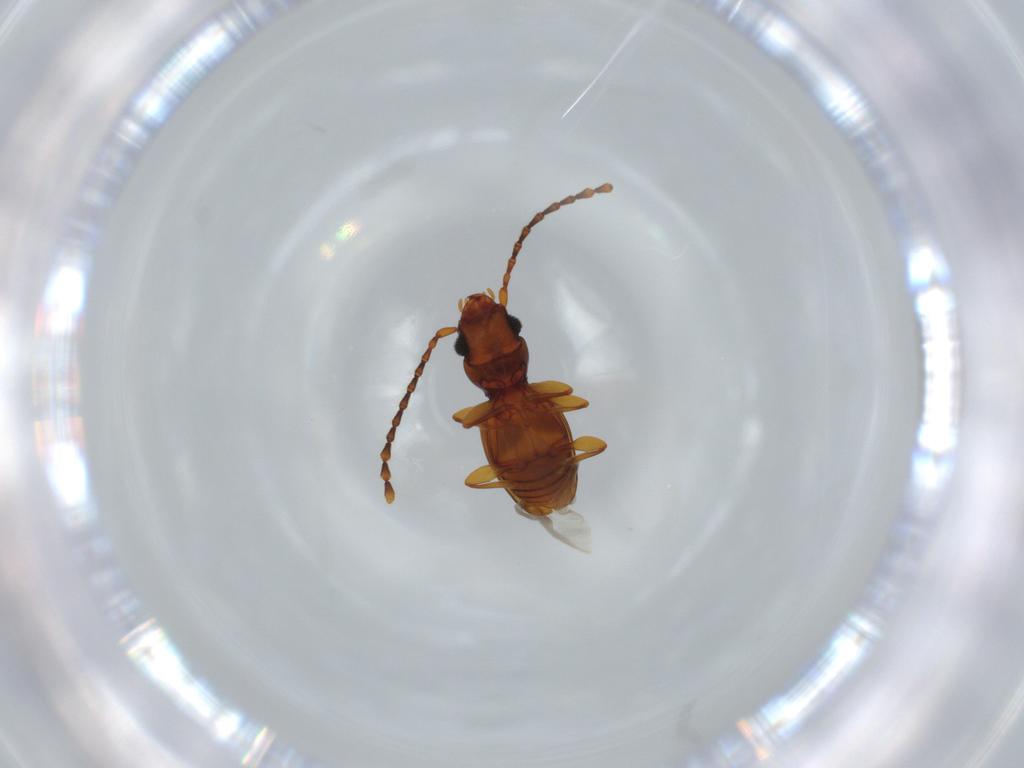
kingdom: Animalia
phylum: Arthropoda
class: Insecta
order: Coleoptera
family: Laemophloeidae
